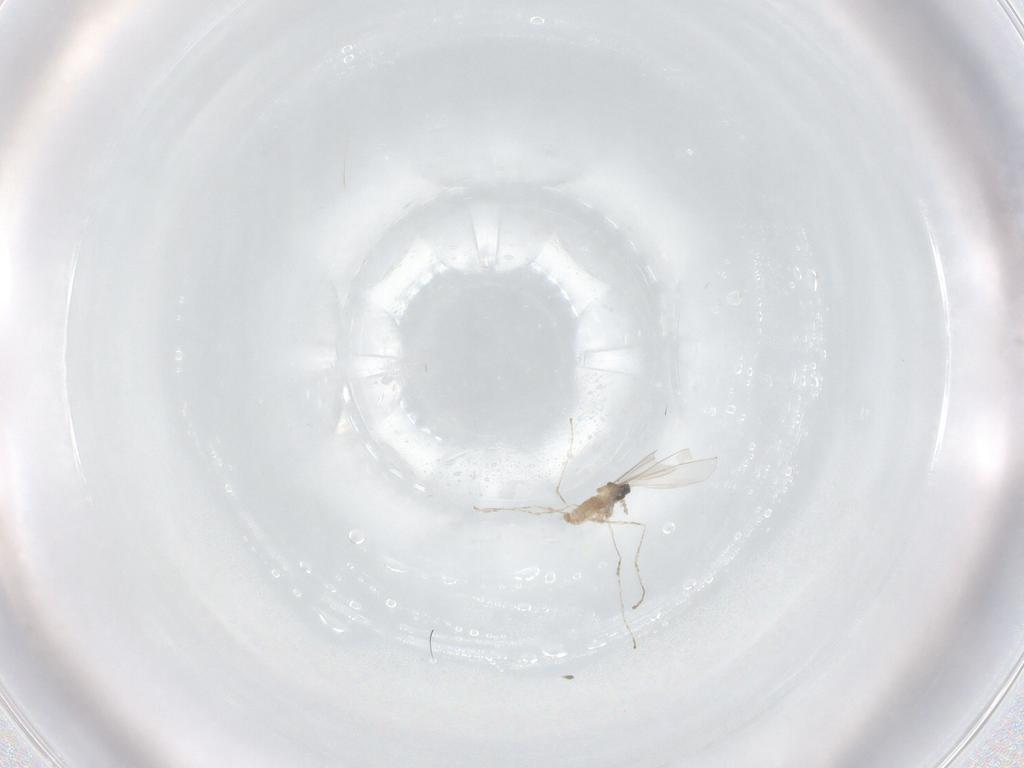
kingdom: Animalia
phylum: Arthropoda
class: Insecta
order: Diptera
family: Cecidomyiidae
